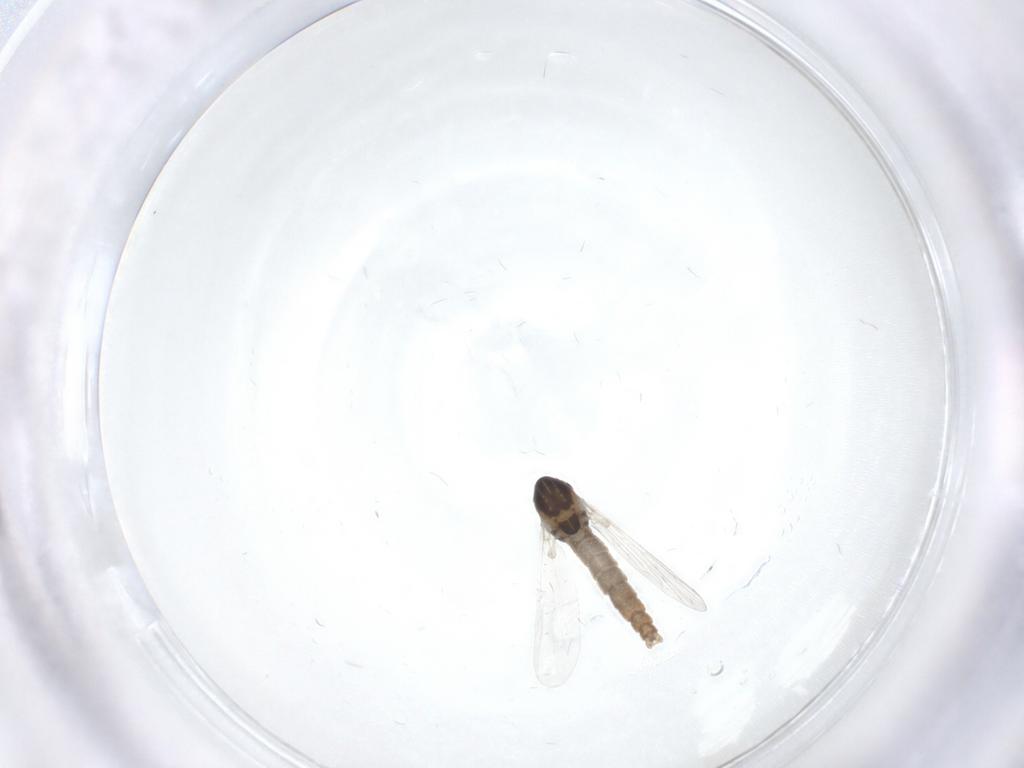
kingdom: Animalia
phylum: Arthropoda
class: Insecta
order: Diptera
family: Chironomidae
